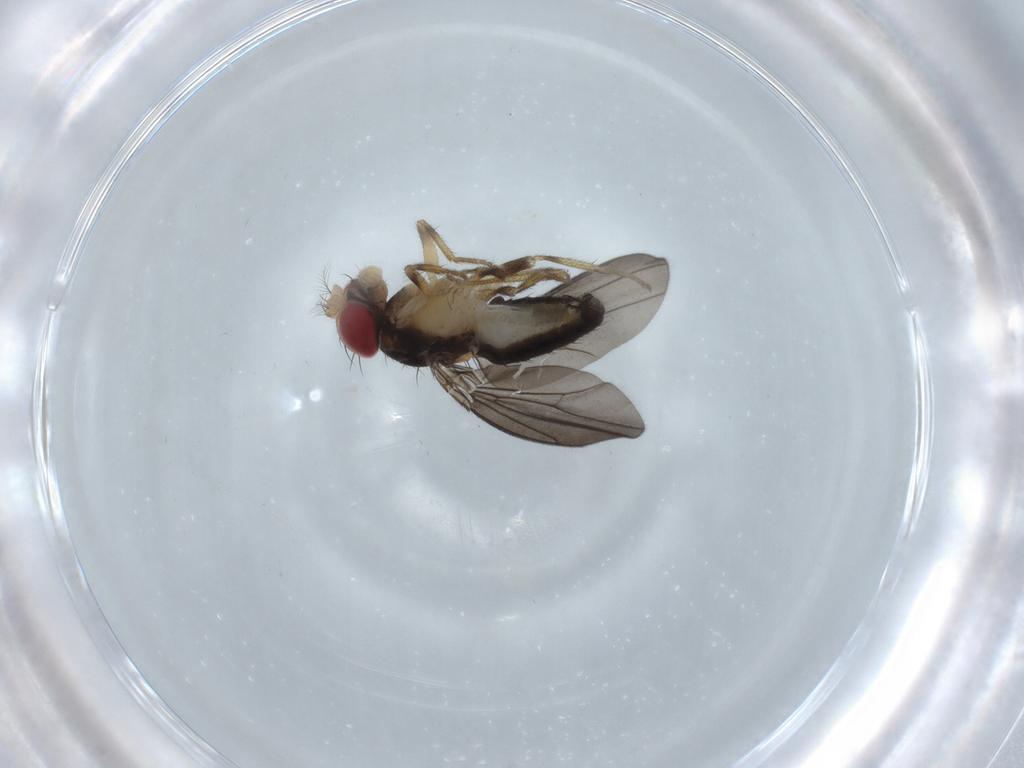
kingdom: Animalia
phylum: Arthropoda
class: Insecta
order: Diptera
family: Drosophilidae
